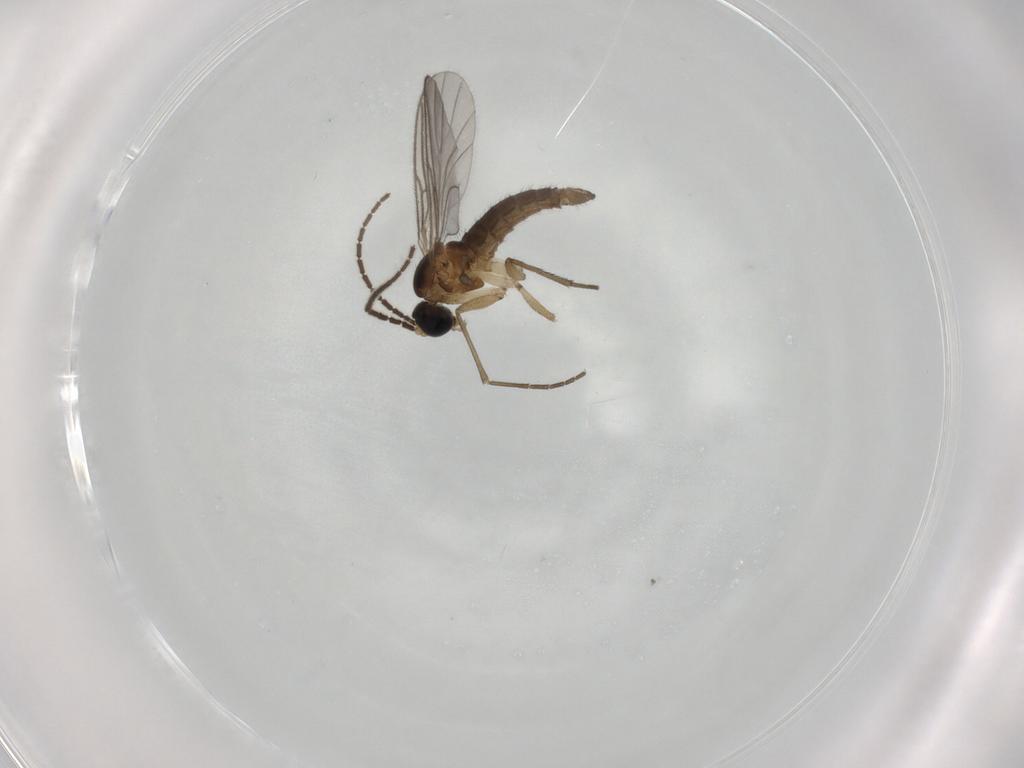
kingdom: Animalia
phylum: Arthropoda
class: Insecta
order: Diptera
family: Sciaridae
